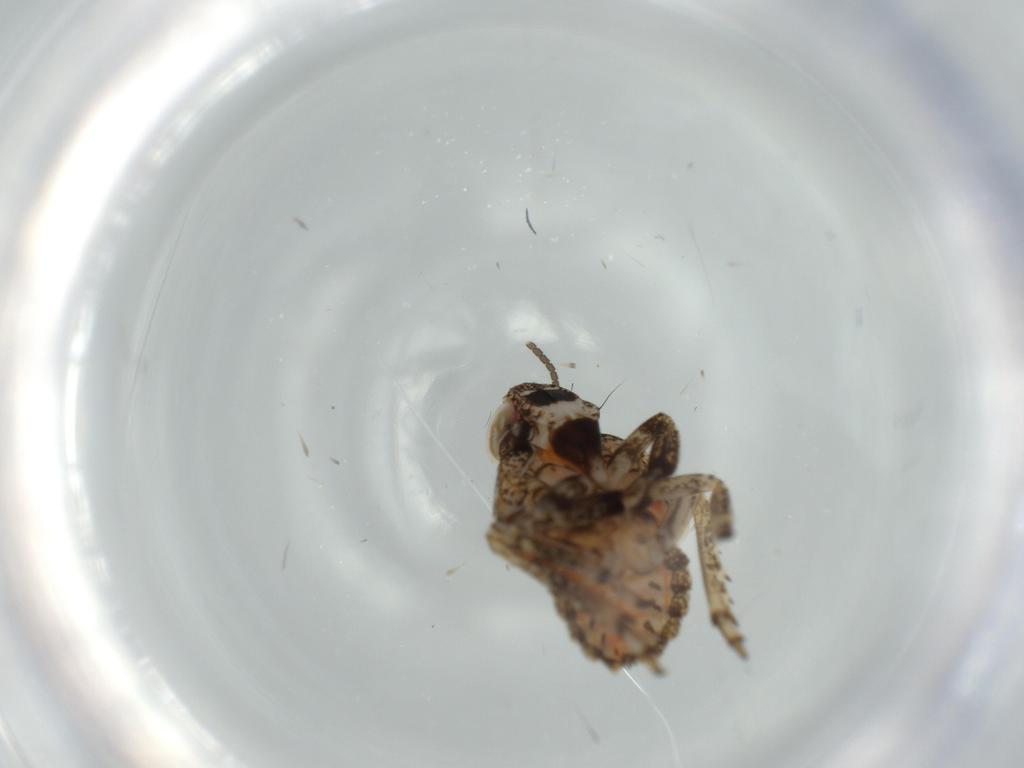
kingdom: Animalia
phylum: Arthropoda
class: Insecta
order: Hemiptera
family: Issidae
